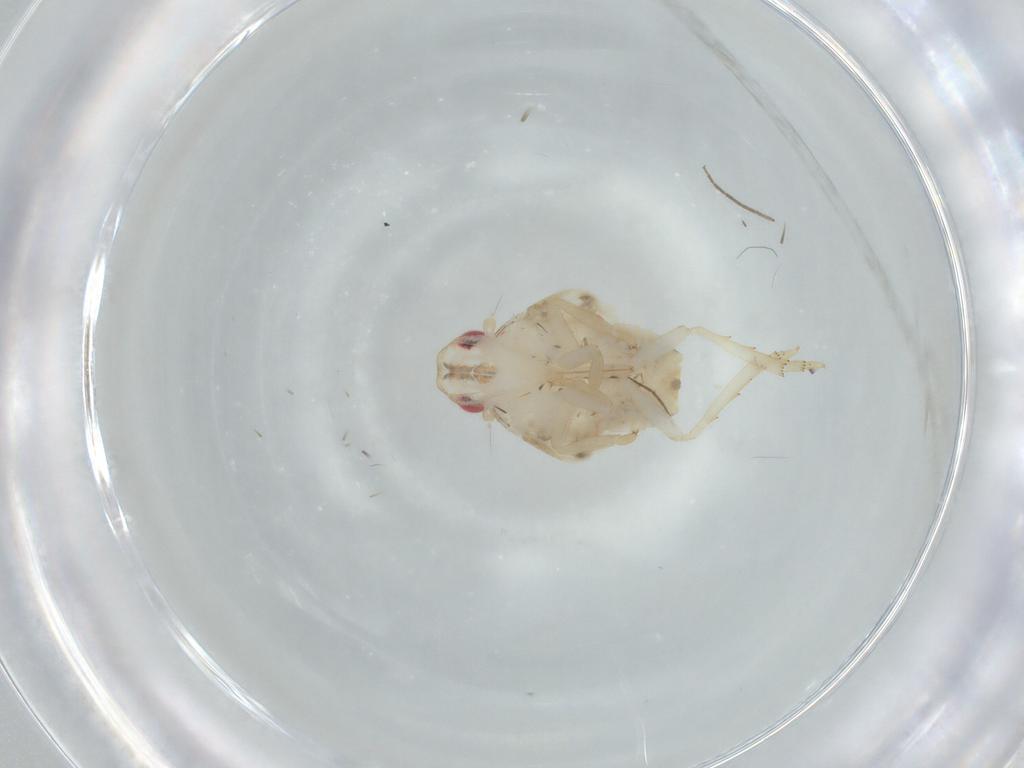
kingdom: Animalia
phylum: Arthropoda
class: Insecta
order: Hemiptera
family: Flatidae
